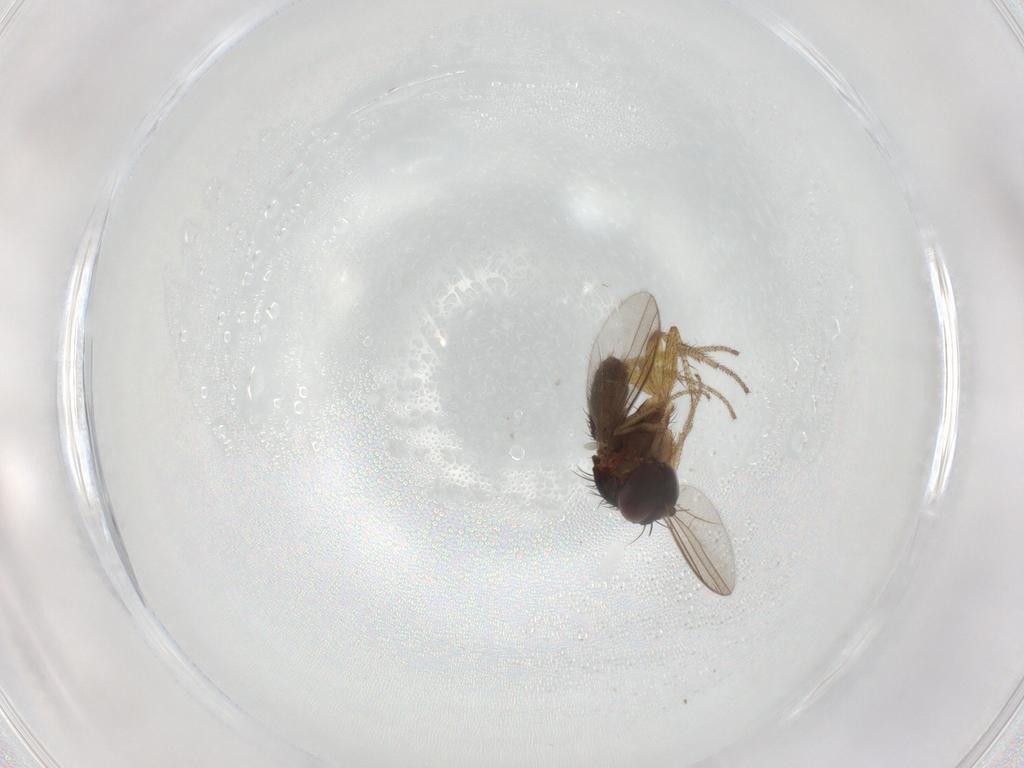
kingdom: Animalia
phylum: Arthropoda
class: Insecta
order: Diptera
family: Dolichopodidae
